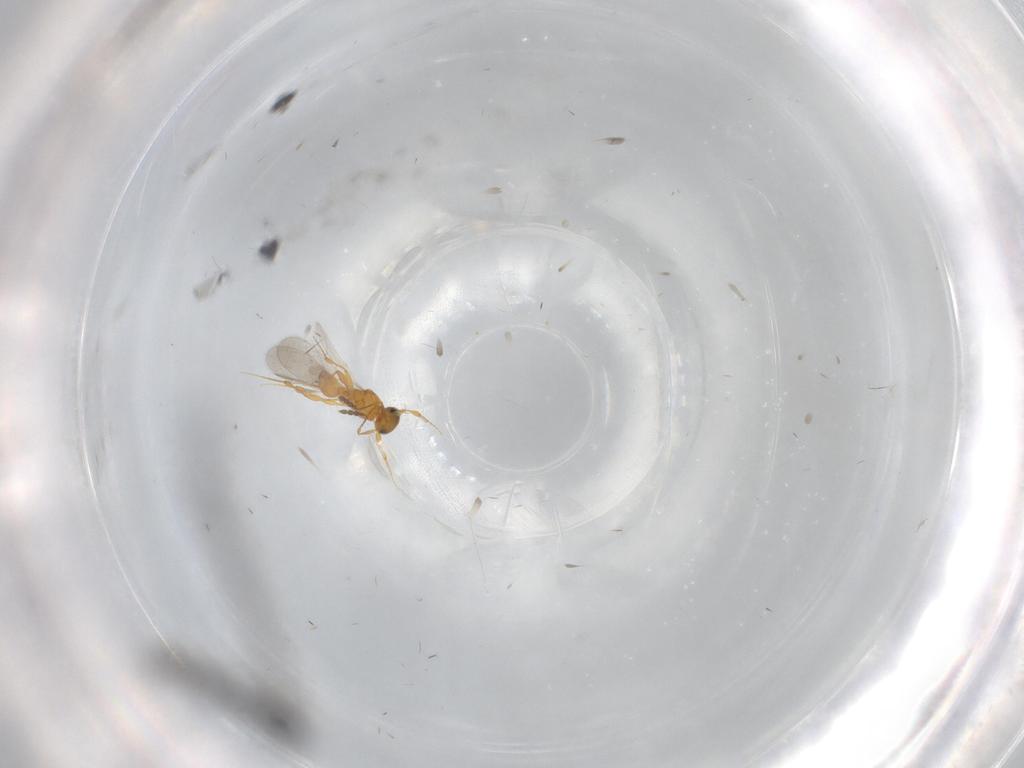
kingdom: Animalia
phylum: Arthropoda
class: Insecta
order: Hymenoptera
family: Platygastridae
